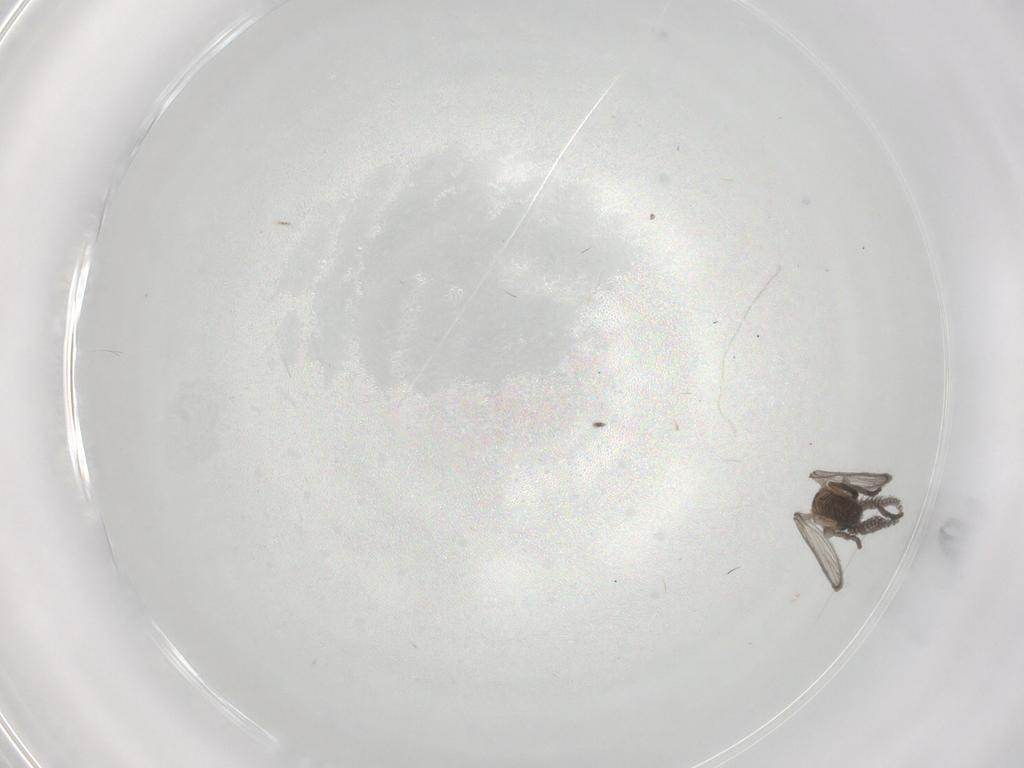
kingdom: Animalia
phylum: Arthropoda
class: Insecta
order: Diptera
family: Sciaridae
